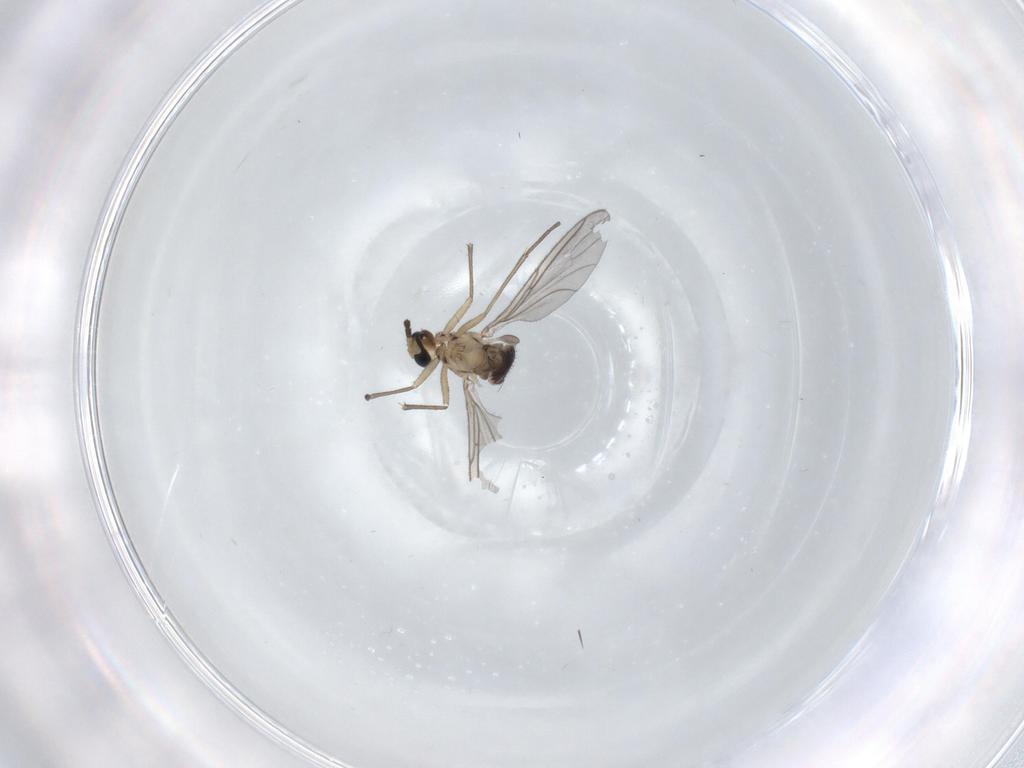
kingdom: Animalia
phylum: Arthropoda
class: Insecta
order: Diptera
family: Sciaridae
